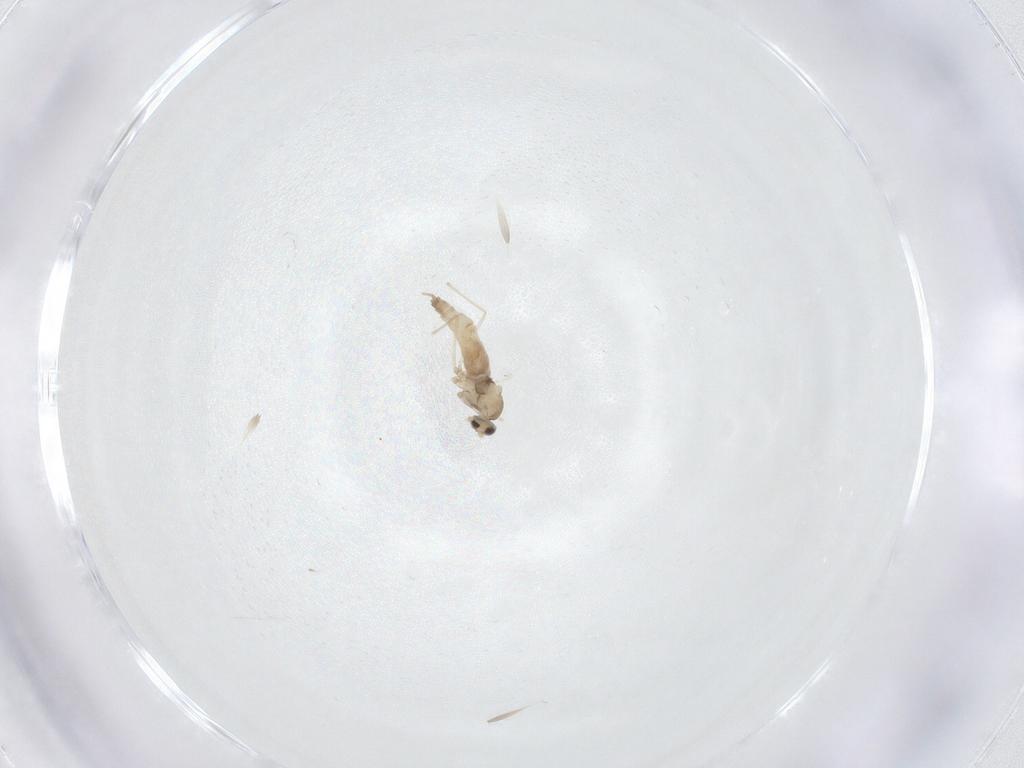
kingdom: Animalia
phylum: Arthropoda
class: Insecta
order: Diptera
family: Cecidomyiidae
